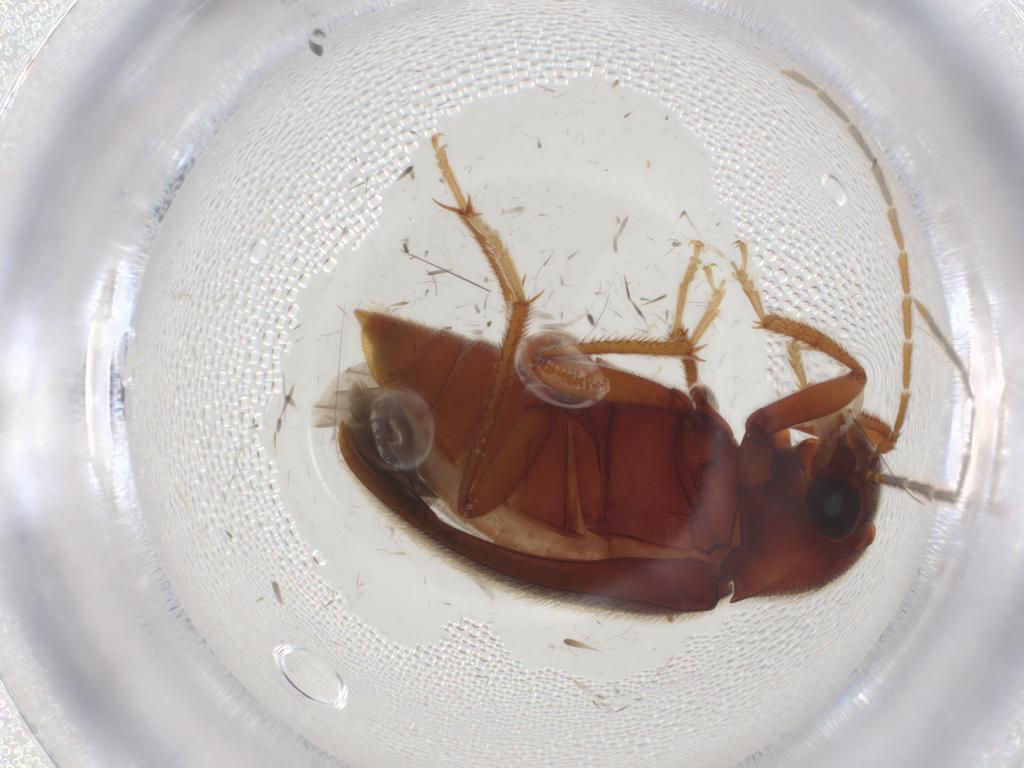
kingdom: Animalia
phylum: Arthropoda
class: Insecta
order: Coleoptera
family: Ptilodactylidae
